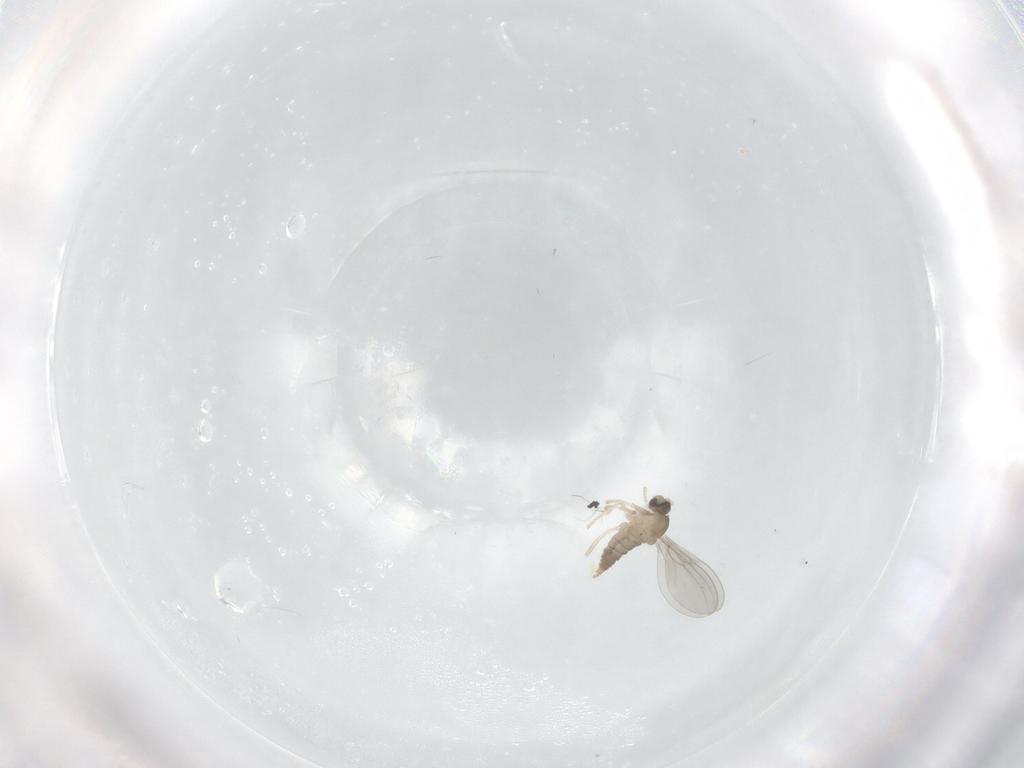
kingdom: Animalia
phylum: Arthropoda
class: Insecta
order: Diptera
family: Cecidomyiidae
